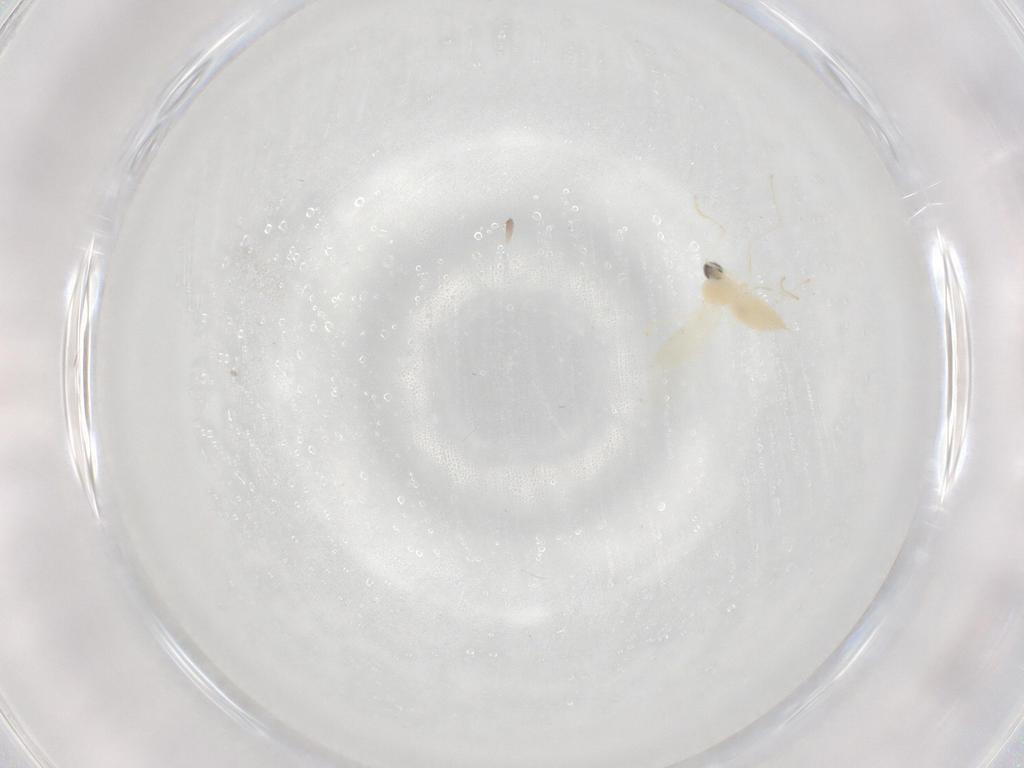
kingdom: Animalia
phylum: Arthropoda
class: Insecta
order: Diptera
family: Cecidomyiidae
